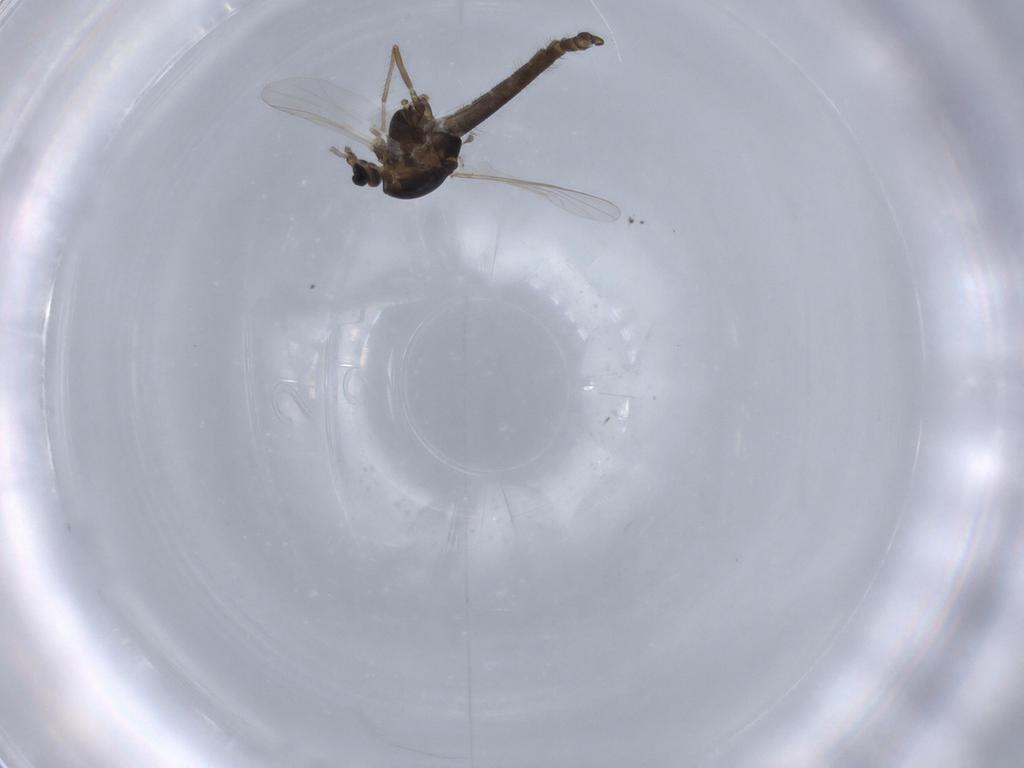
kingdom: Animalia
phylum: Arthropoda
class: Insecta
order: Diptera
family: Chironomidae
